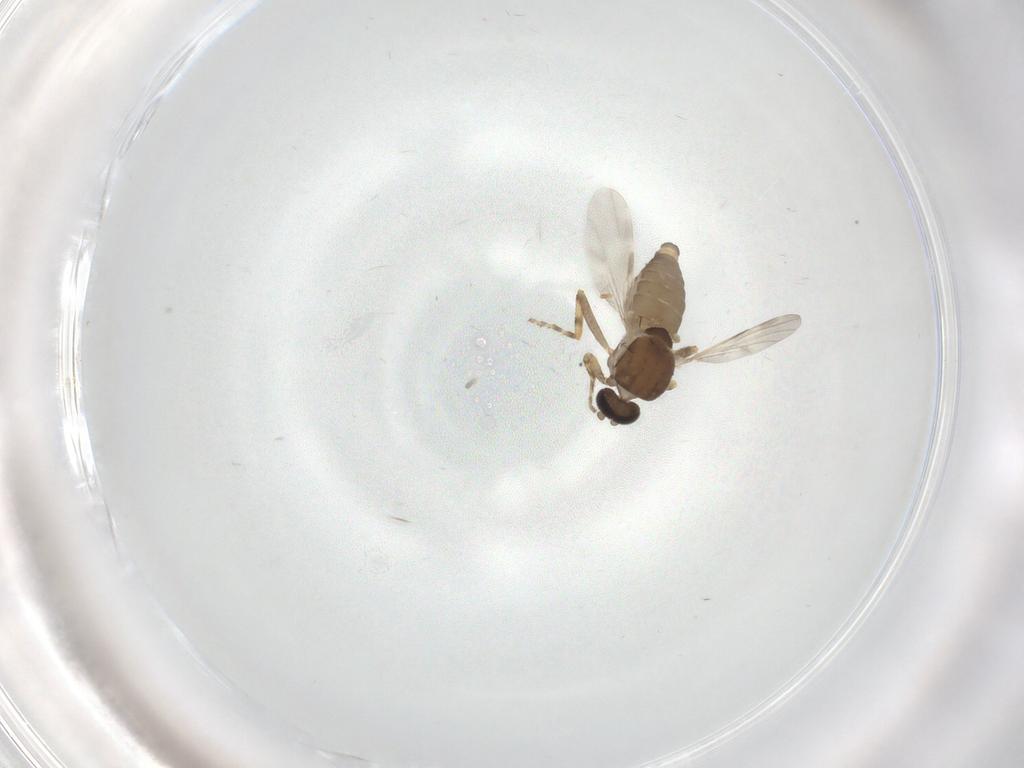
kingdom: Animalia
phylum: Arthropoda
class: Insecta
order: Diptera
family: Ceratopogonidae
